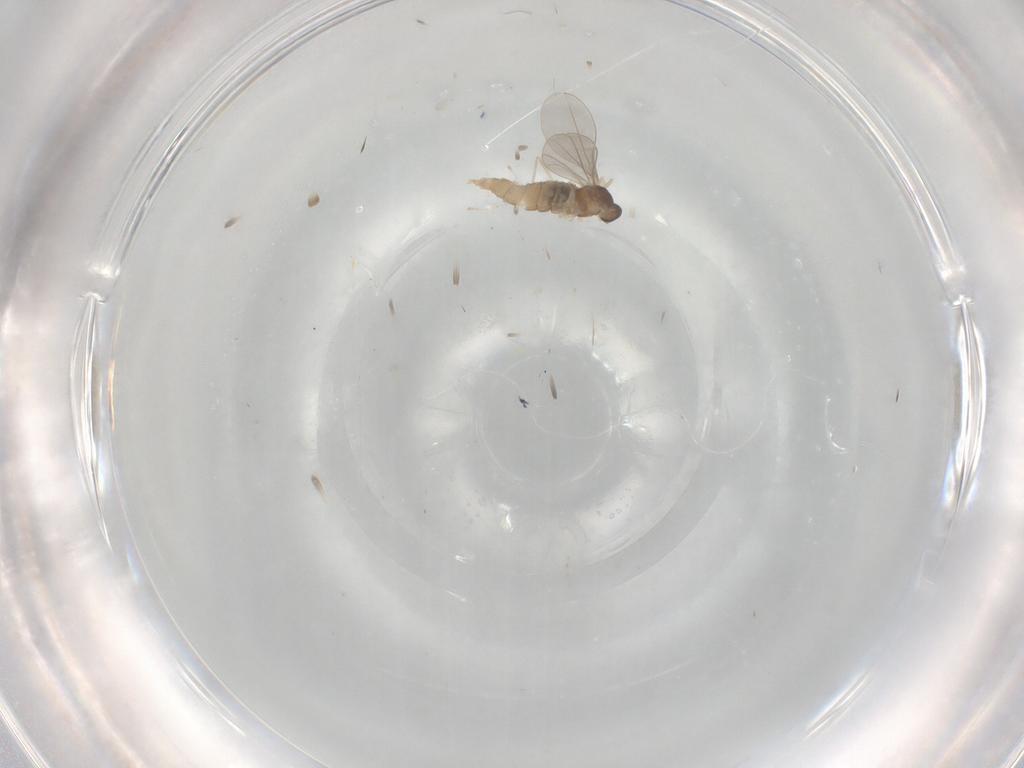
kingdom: Animalia
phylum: Arthropoda
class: Insecta
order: Diptera
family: Cecidomyiidae
